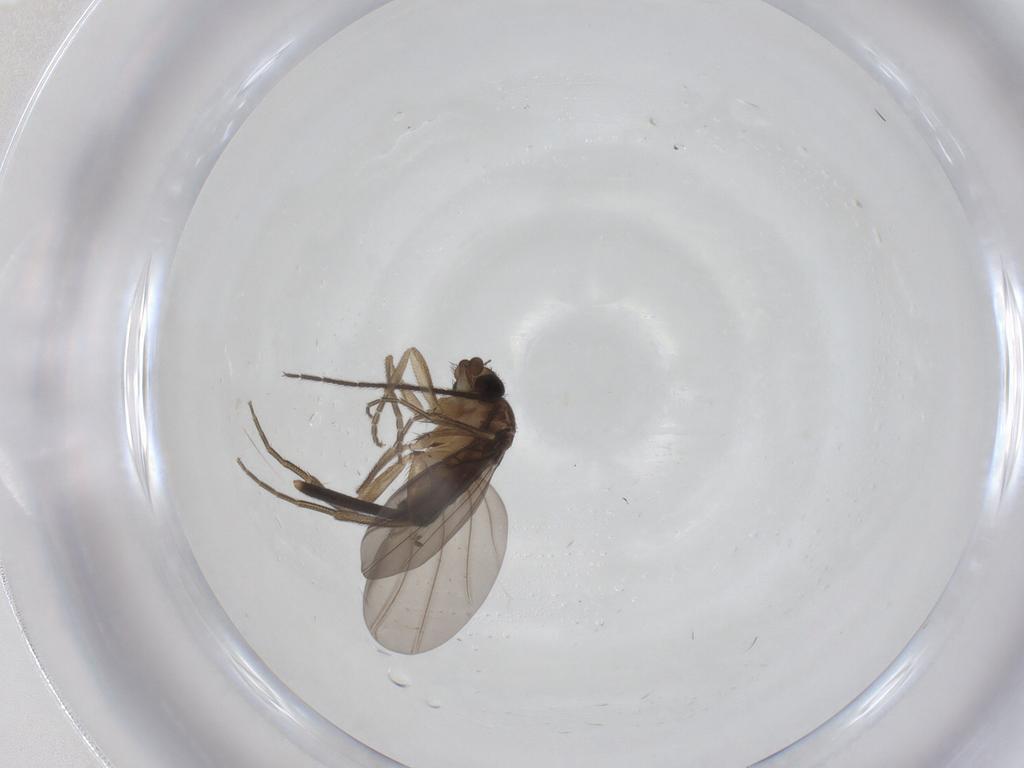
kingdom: Animalia
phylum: Arthropoda
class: Insecta
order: Diptera
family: Chironomidae
